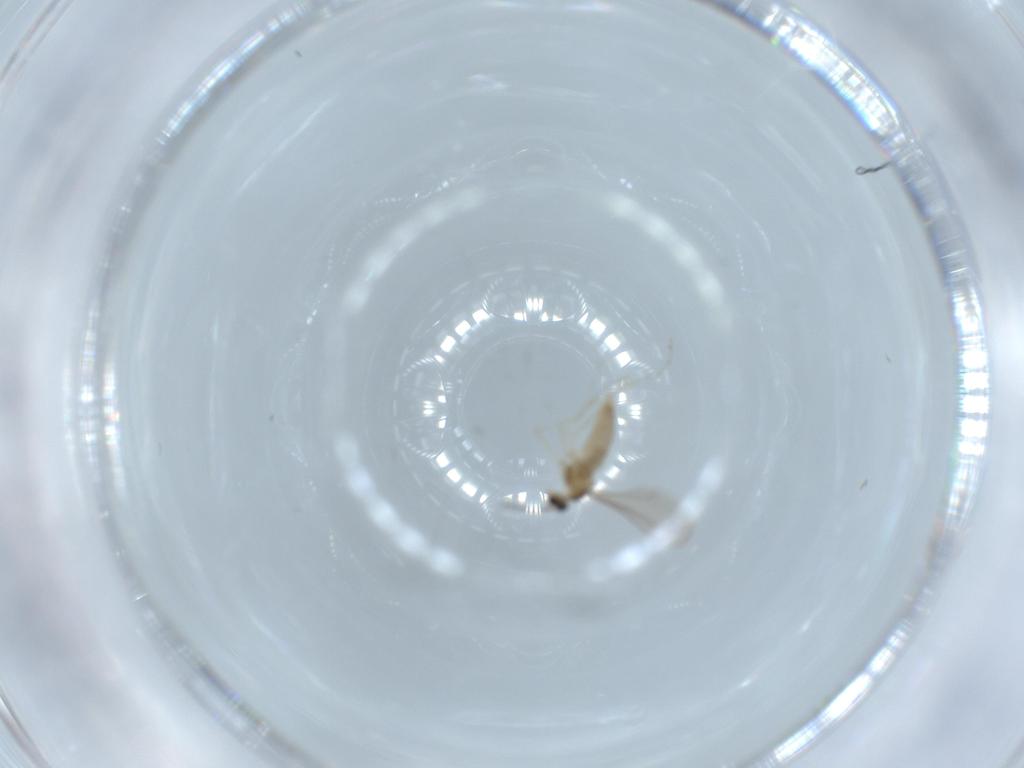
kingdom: Animalia
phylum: Arthropoda
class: Insecta
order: Diptera
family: Cecidomyiidae
